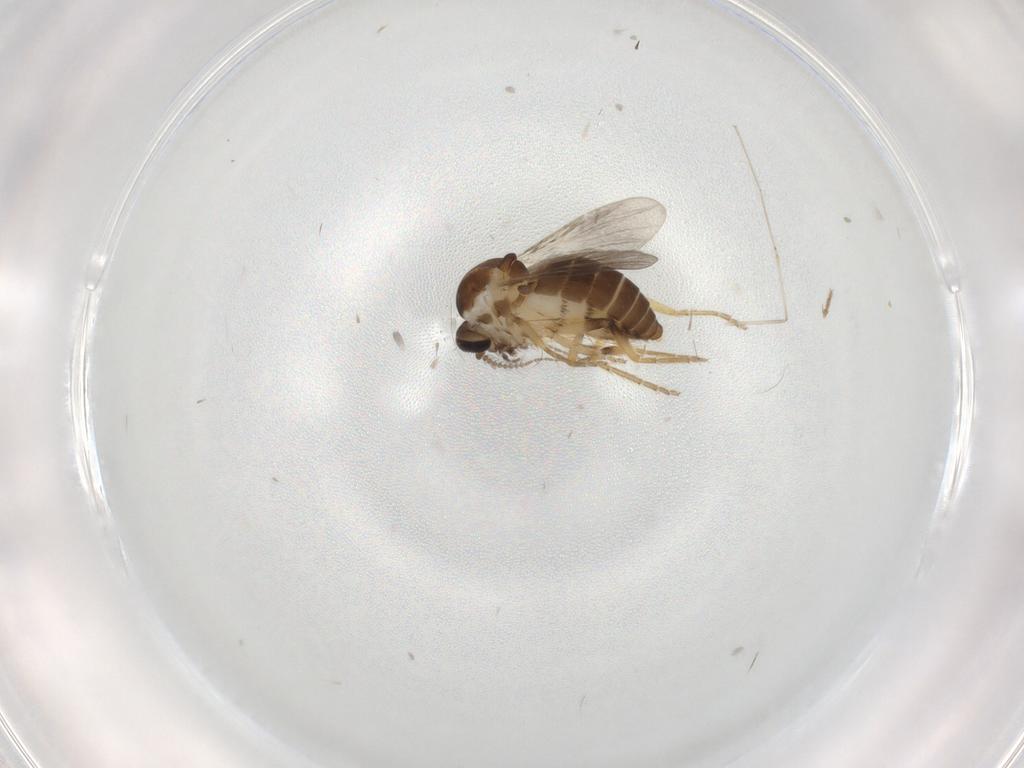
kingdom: Animalia
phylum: Arthropoda
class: Insecta
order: Diptera
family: Ceratopogonidae
